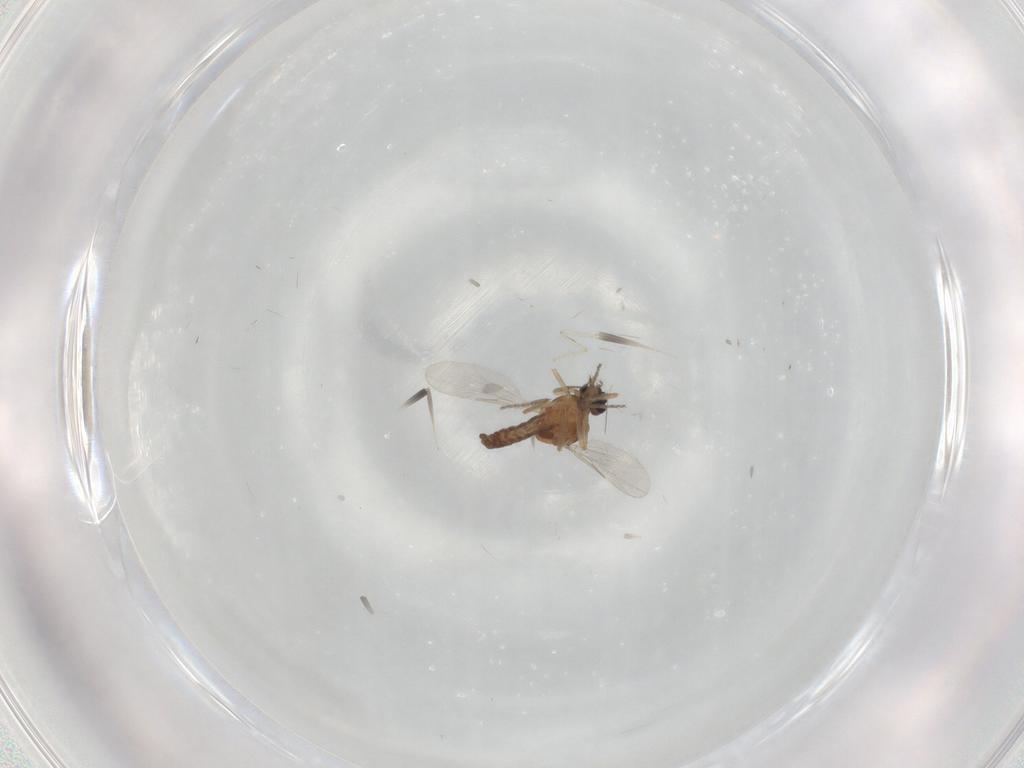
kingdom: Animalia
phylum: Arthropoda
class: Insecta
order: Diptera
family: Ceratopogonidae
